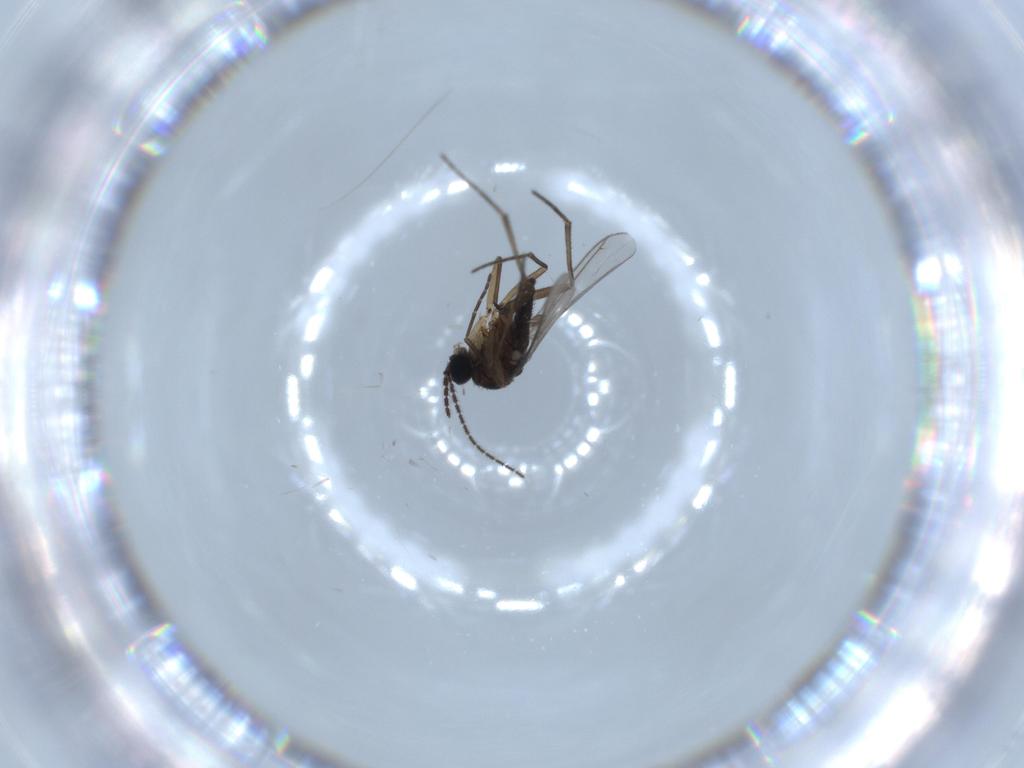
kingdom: Animalia
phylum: Arthropoda
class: Insecta
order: Diptera
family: Sciaridae
